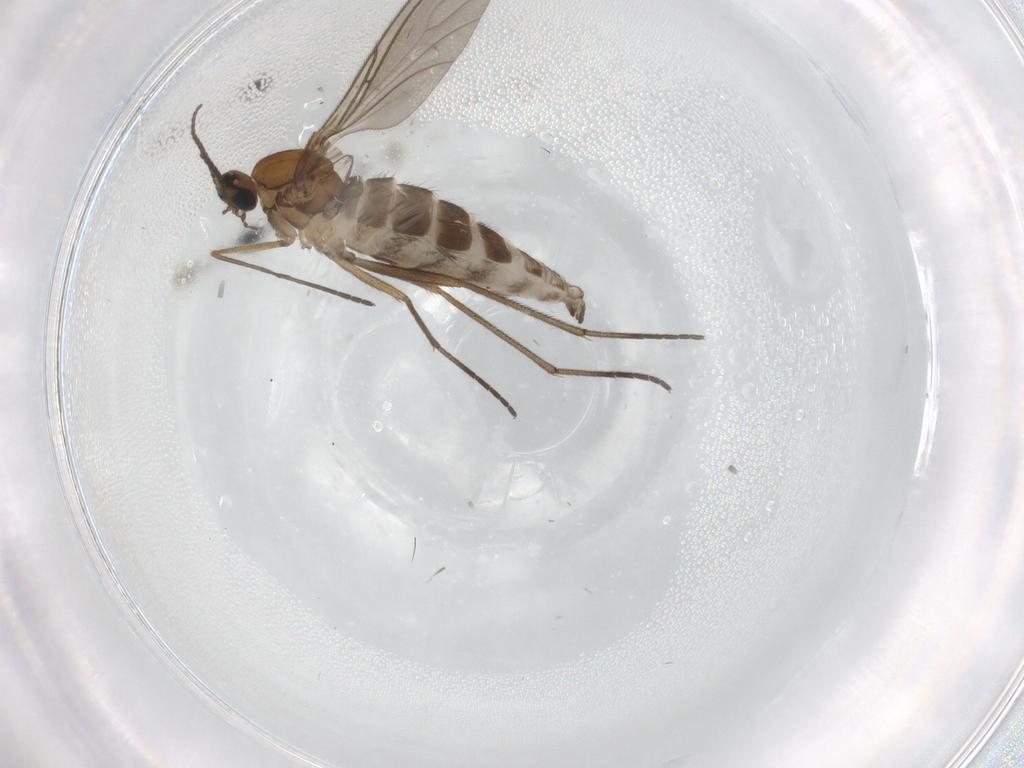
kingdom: Animalia
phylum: Arthropoda
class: Insecta
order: Diptera
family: Sciaridae
